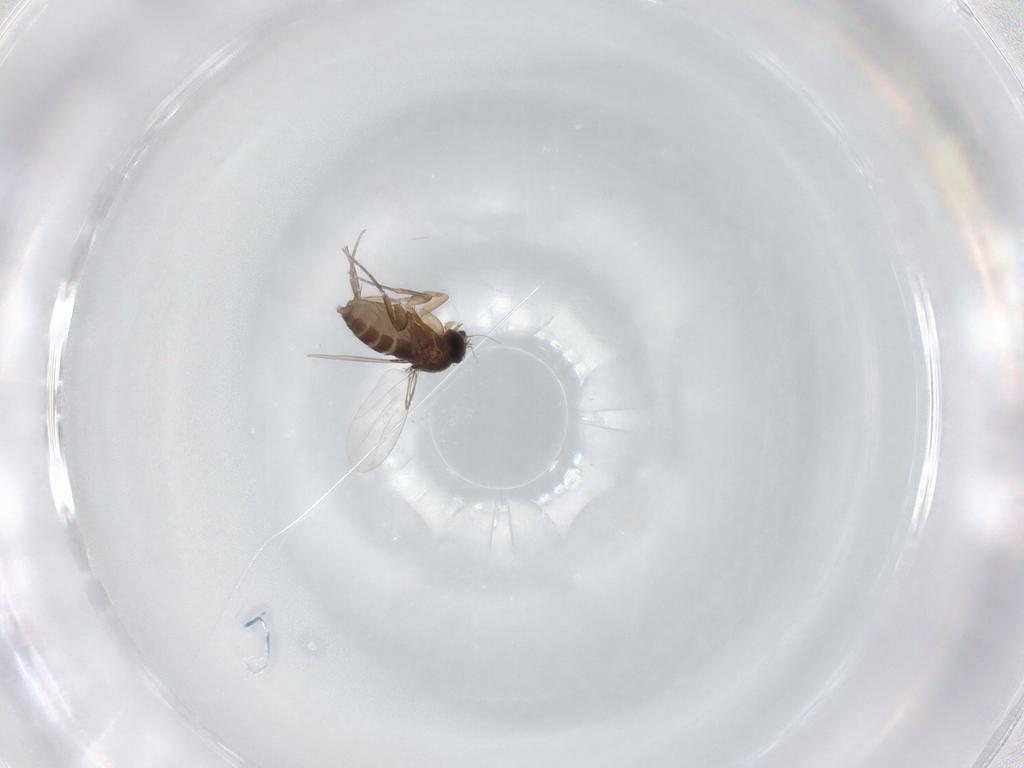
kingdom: Animalia
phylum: Arthropoda
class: Insecta
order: Diptera
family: Phoridae
